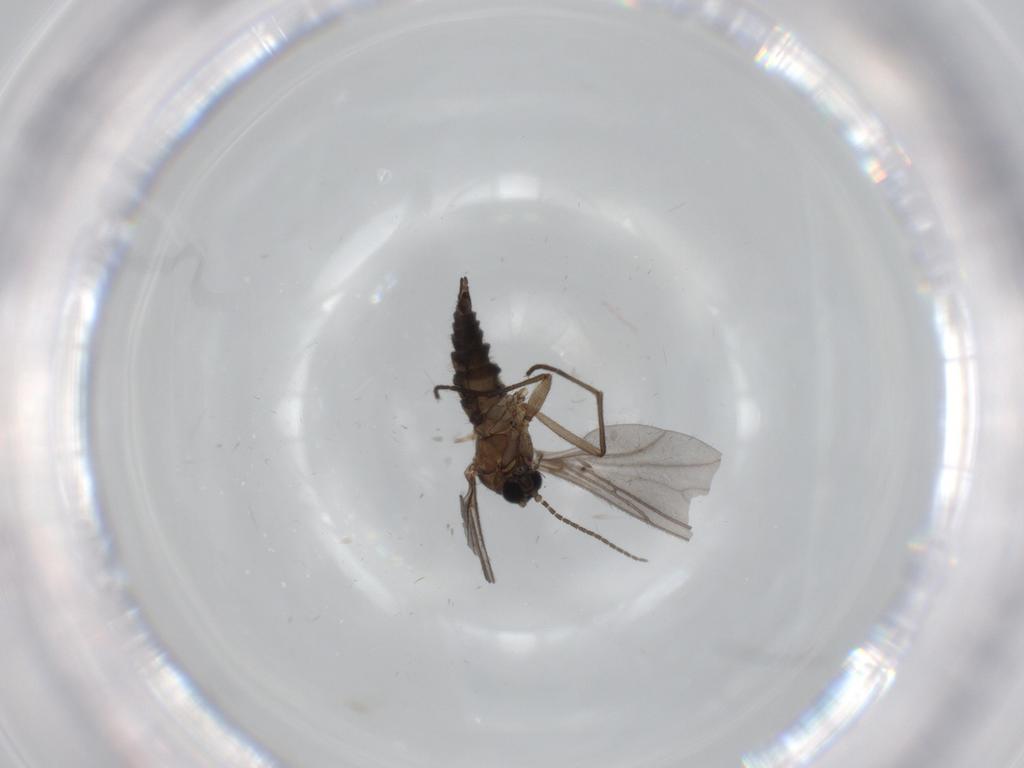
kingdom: Animalia
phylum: Arthropoda
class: Insecta
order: Diptera
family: Sciaridae
